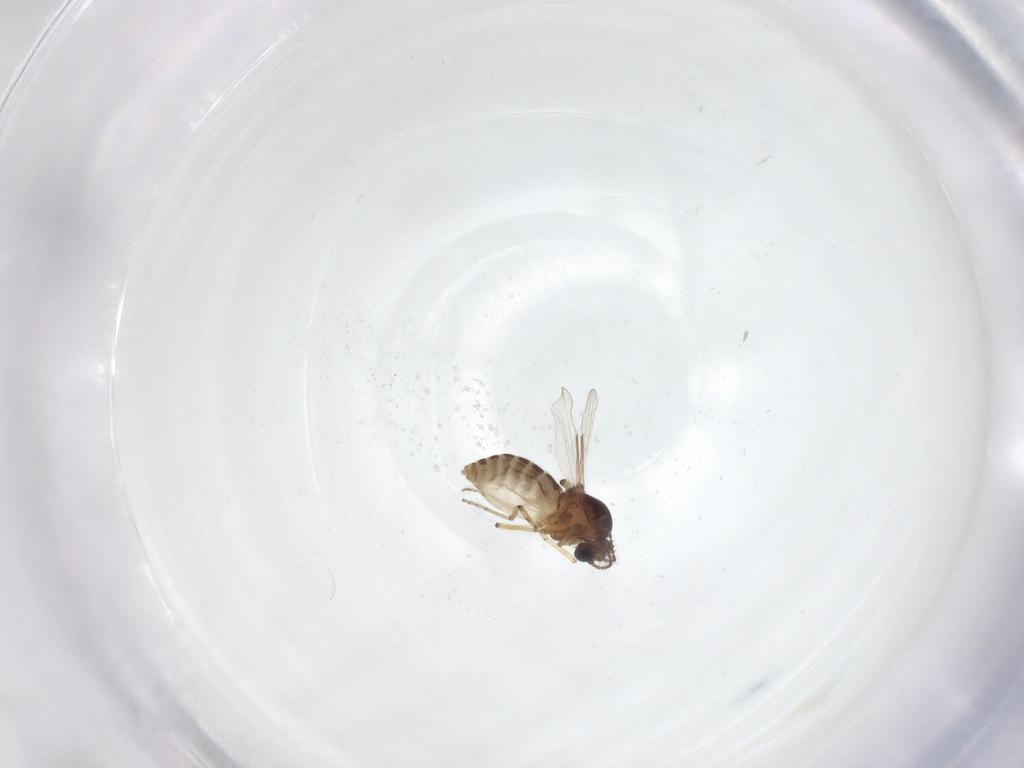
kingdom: Animalia
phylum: Arthropoda
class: Insecta
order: Diptera
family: Ceratopogonidae
